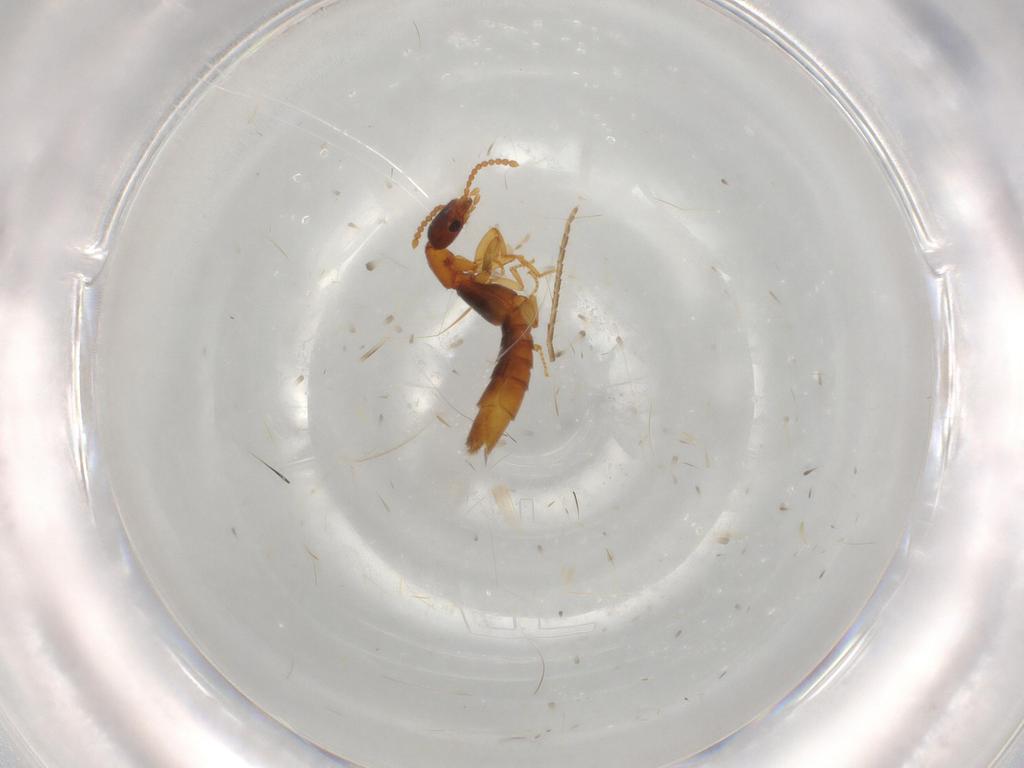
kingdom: Animalia
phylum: Arthropoda
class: Insecta
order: Coleoptera
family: Staphylinidae
